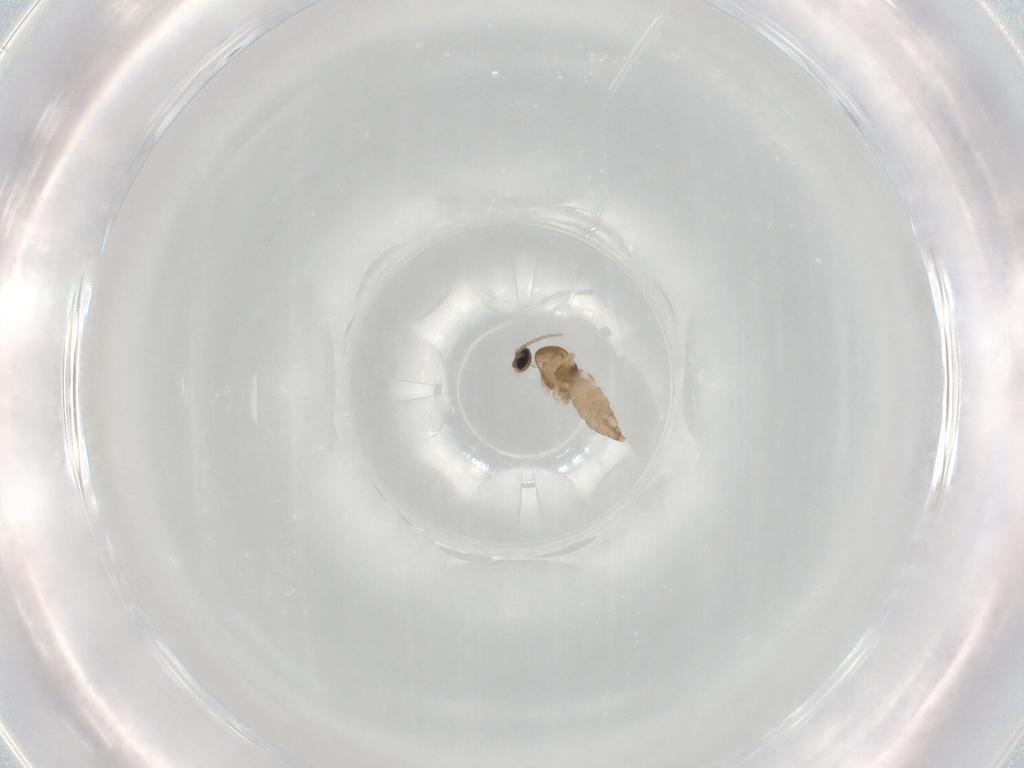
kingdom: Animalia
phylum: Arthropoda
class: Insecta
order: Diptera
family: Cecidomyiidae
